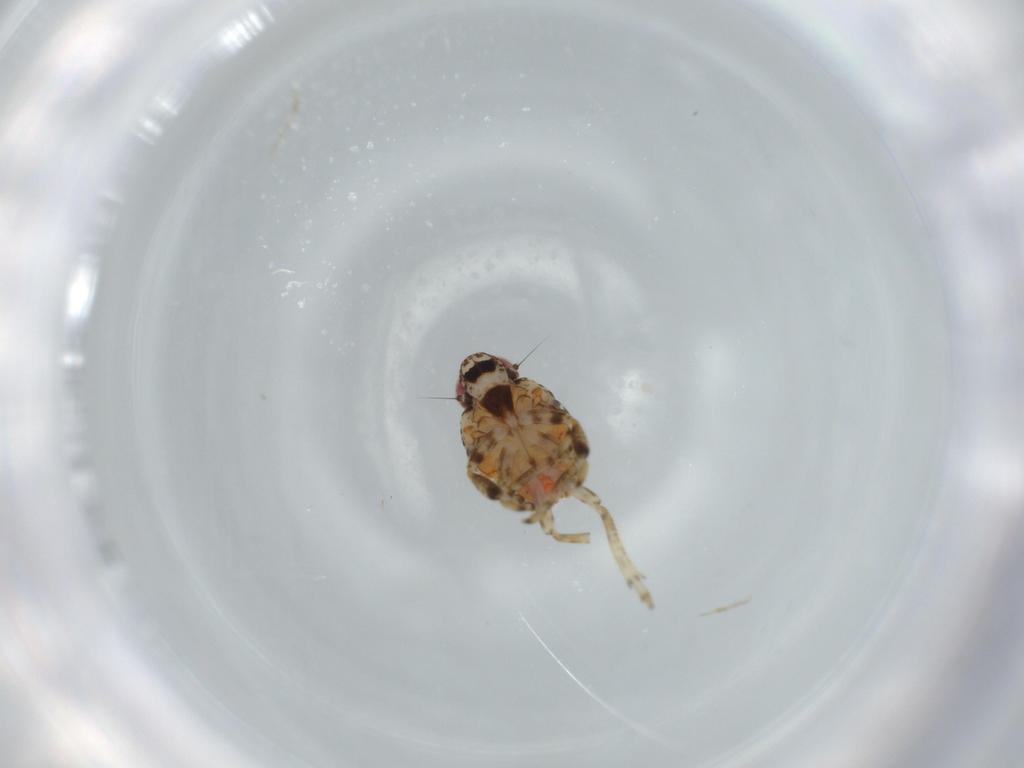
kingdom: Animalia
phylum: Arthropoda
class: Insecta
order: Hemiptera
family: Issidae
